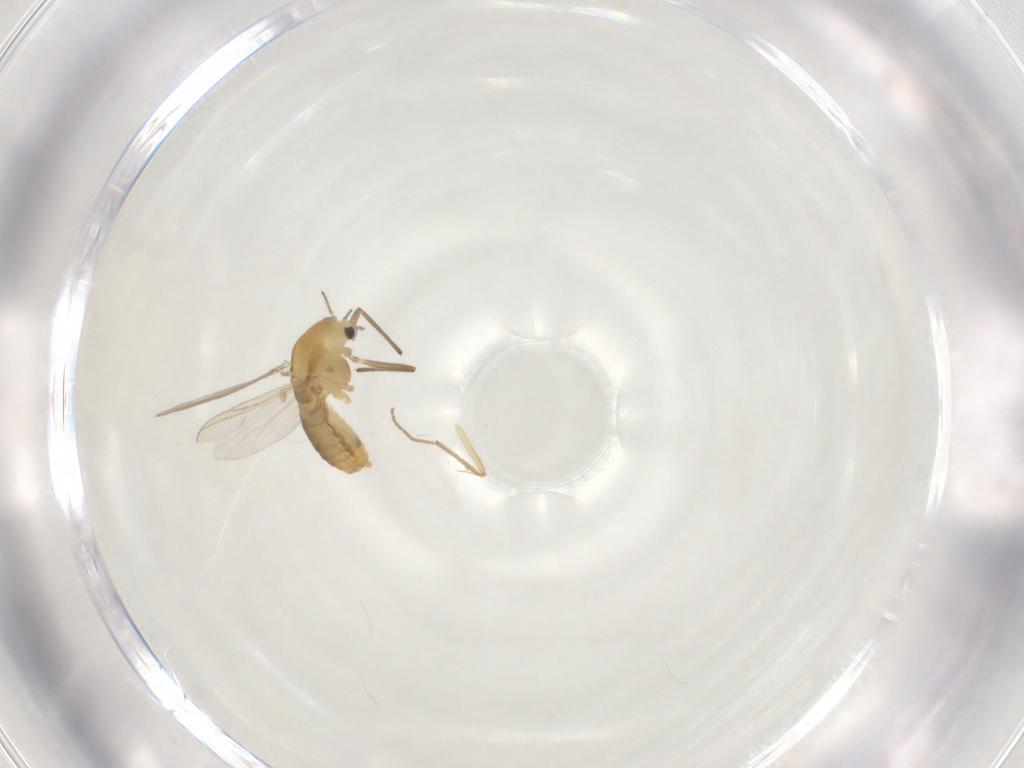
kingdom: Animalia
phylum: Arthropoda
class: Insecta
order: Diptera
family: Chironomidae
